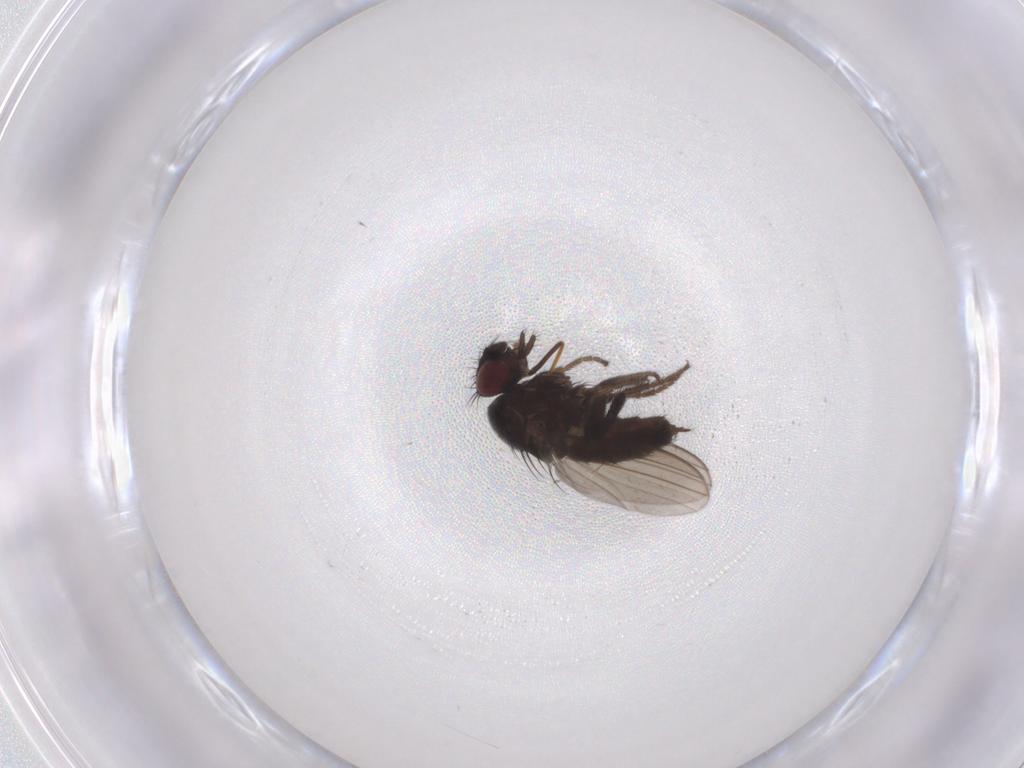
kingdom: Animalia
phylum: Arthropoda
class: Insecta
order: Diptera
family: Milichiidae
